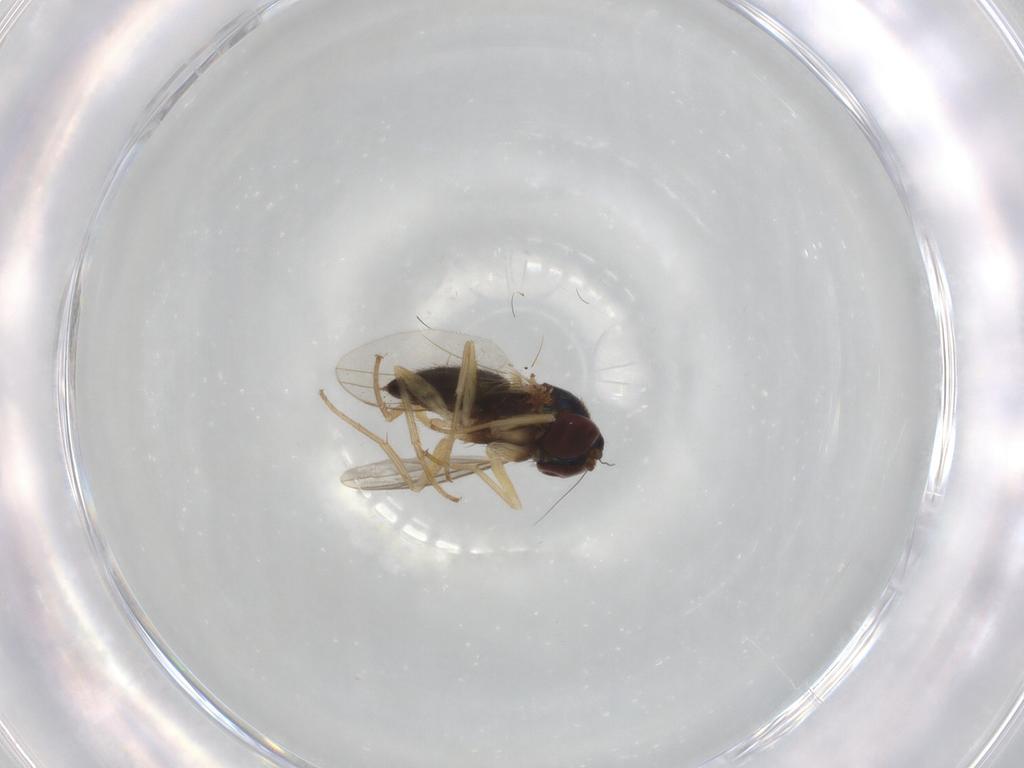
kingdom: Animalia
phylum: Arthropoda
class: Insecta
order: Diptera
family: Dolichopodidae
